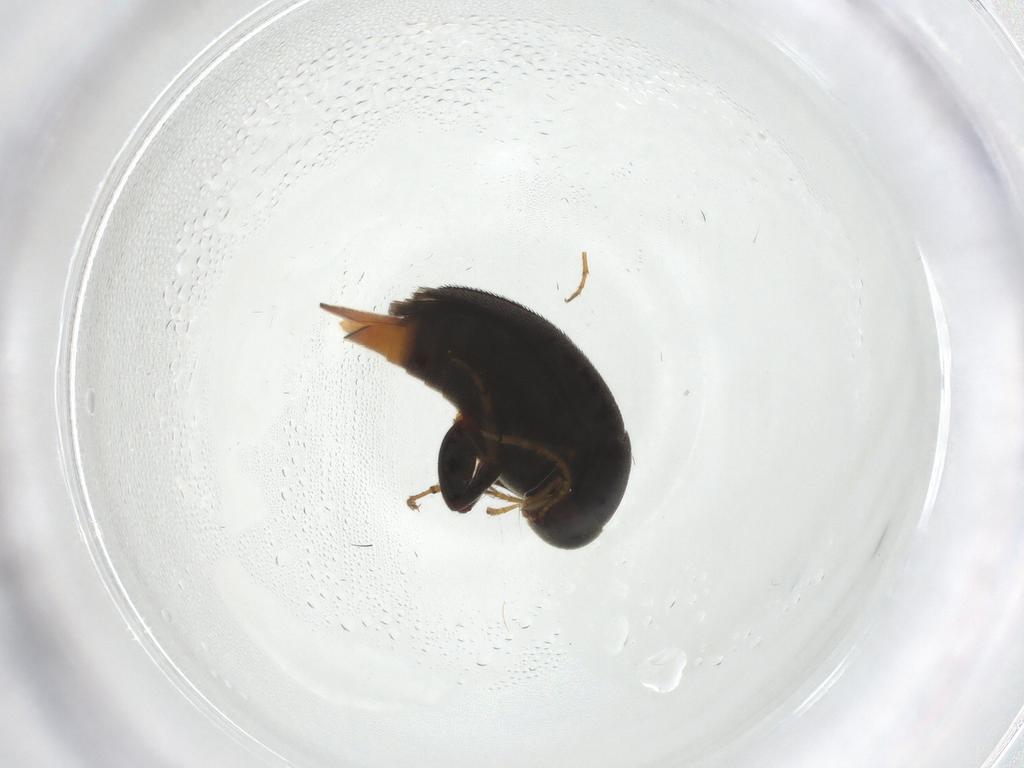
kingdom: Animalia
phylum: Arthropoda
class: Insecta
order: Coleoptera
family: Mordellidae
